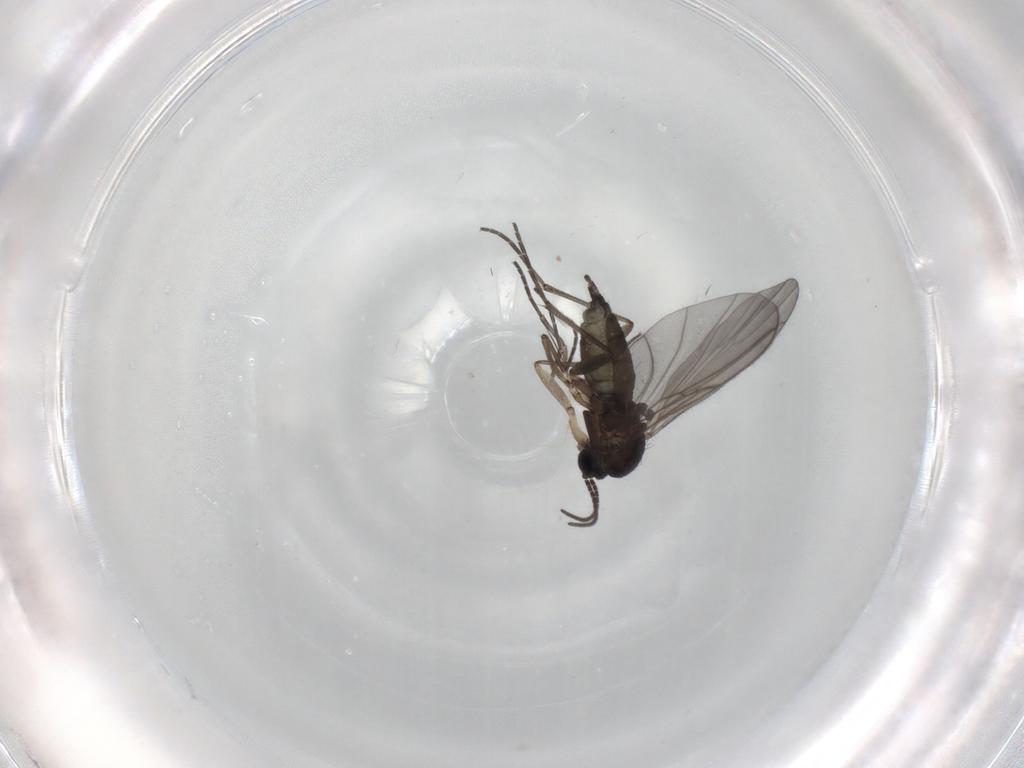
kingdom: Animalia
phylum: Arthropoda
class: Insecta
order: Diptera
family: Sciaridae
